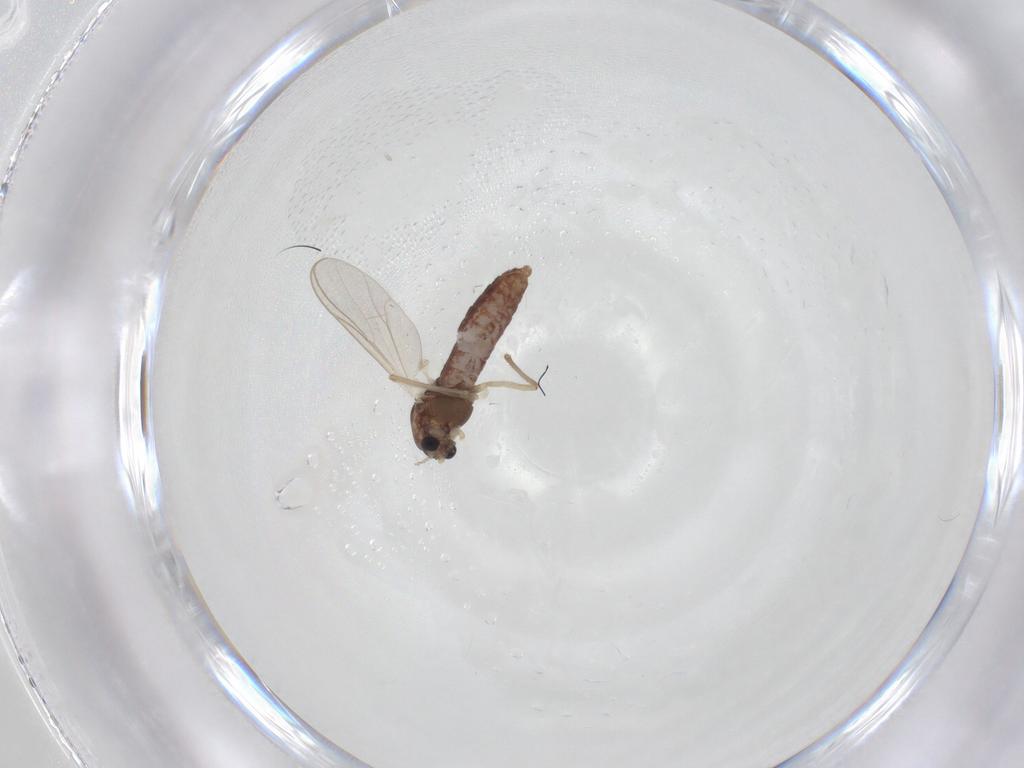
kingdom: Animalia
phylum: Arthropoda
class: Insecta
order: Diptera
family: Chironomidae
